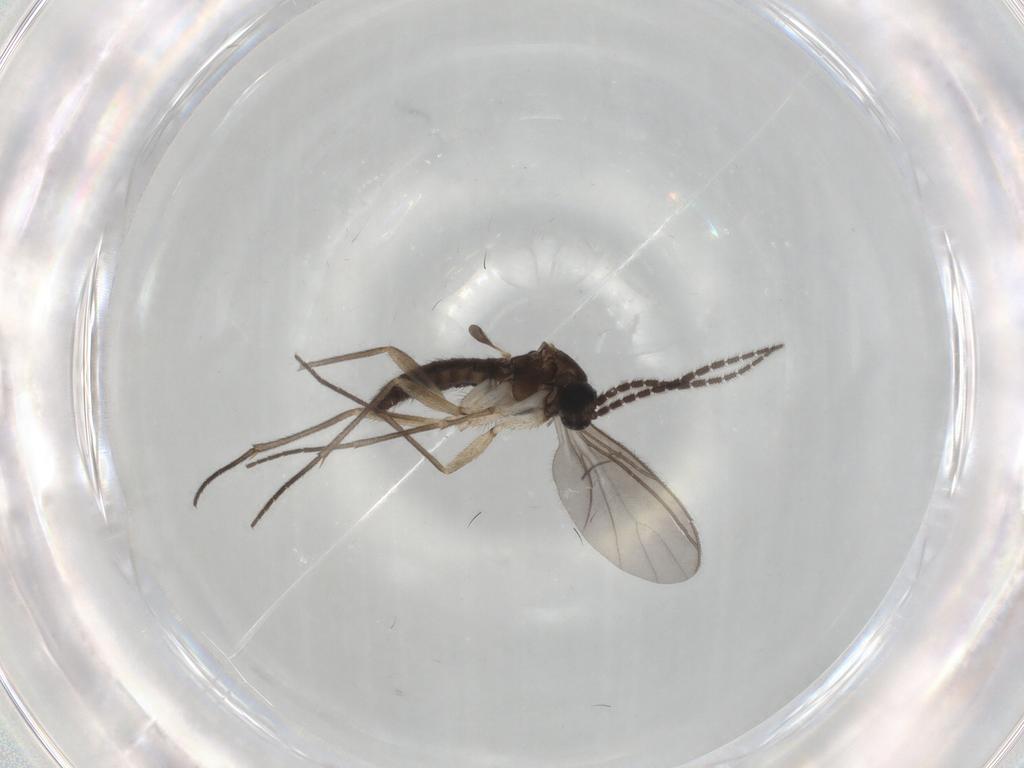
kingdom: Animalia
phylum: Arthropoda
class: Insecta
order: Diptera
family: Sciaridae
